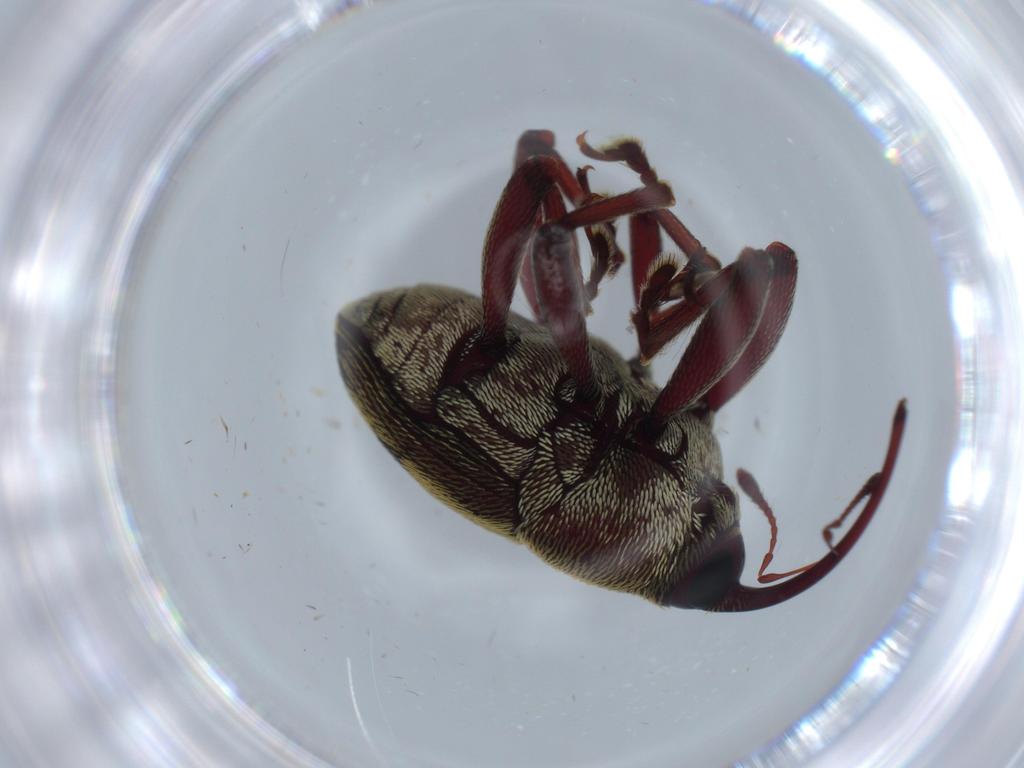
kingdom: Animalia
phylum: Arthropoda
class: Insecta
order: Coleoptera
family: Curculionidae
